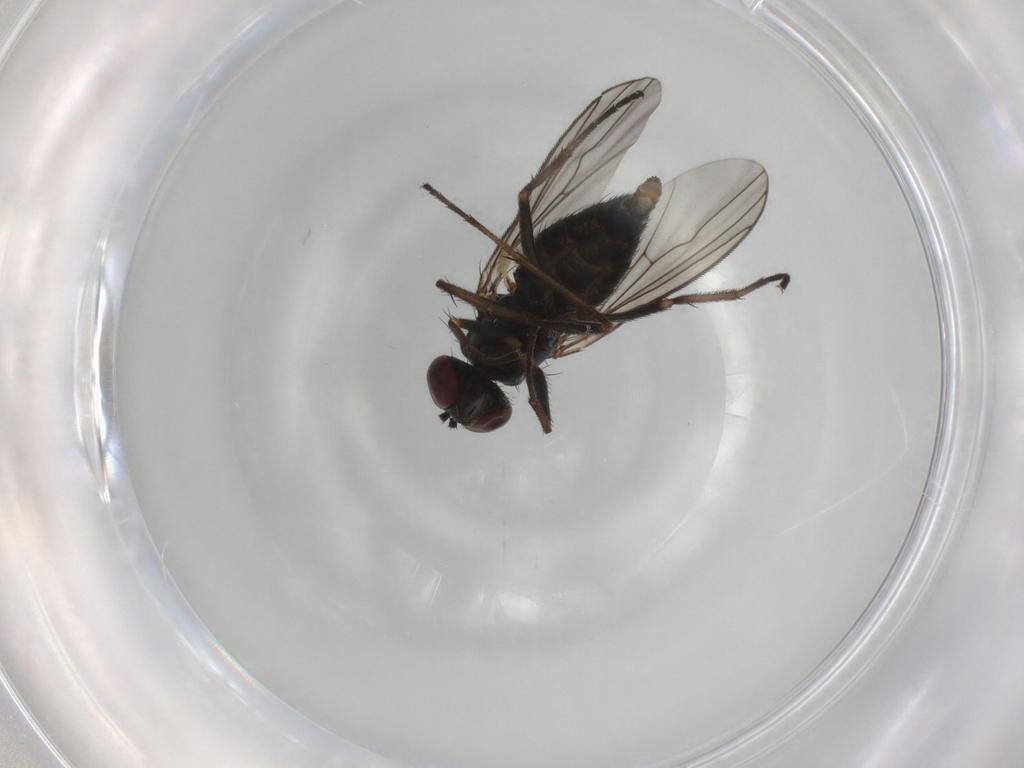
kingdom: Animalia
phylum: Arthropoda
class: Insecta
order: Diptera
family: Dolichopodidae
